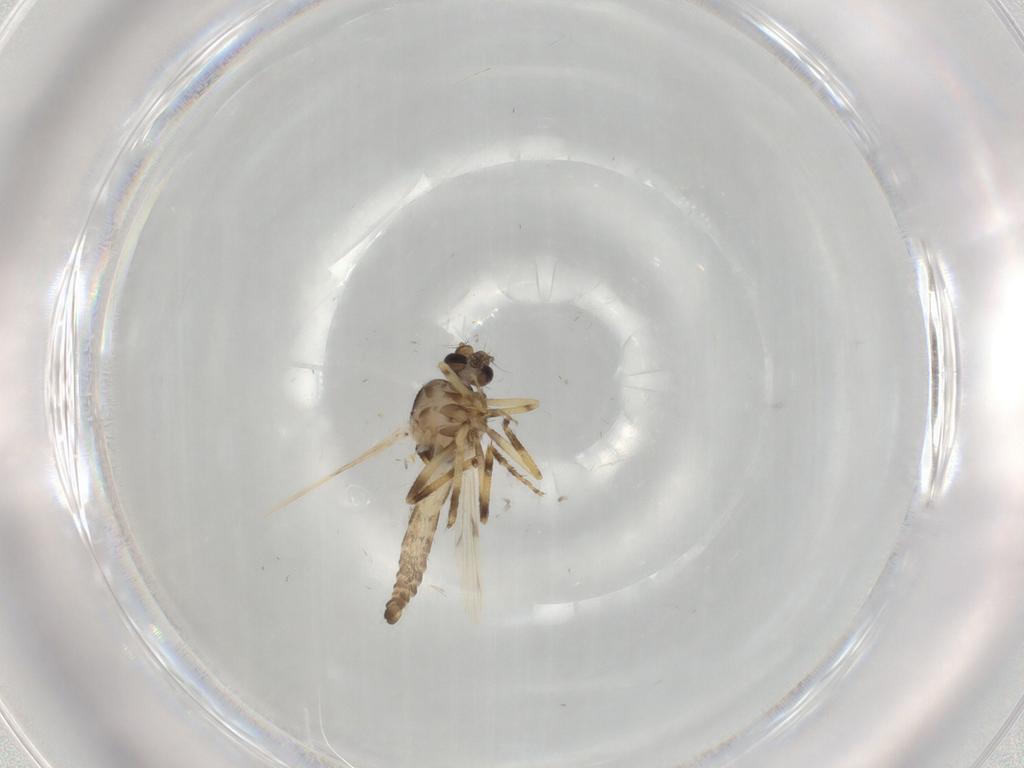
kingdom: Animalia
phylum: Arthropoda
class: Insecta
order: Diptera
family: Ceratopogonidae
